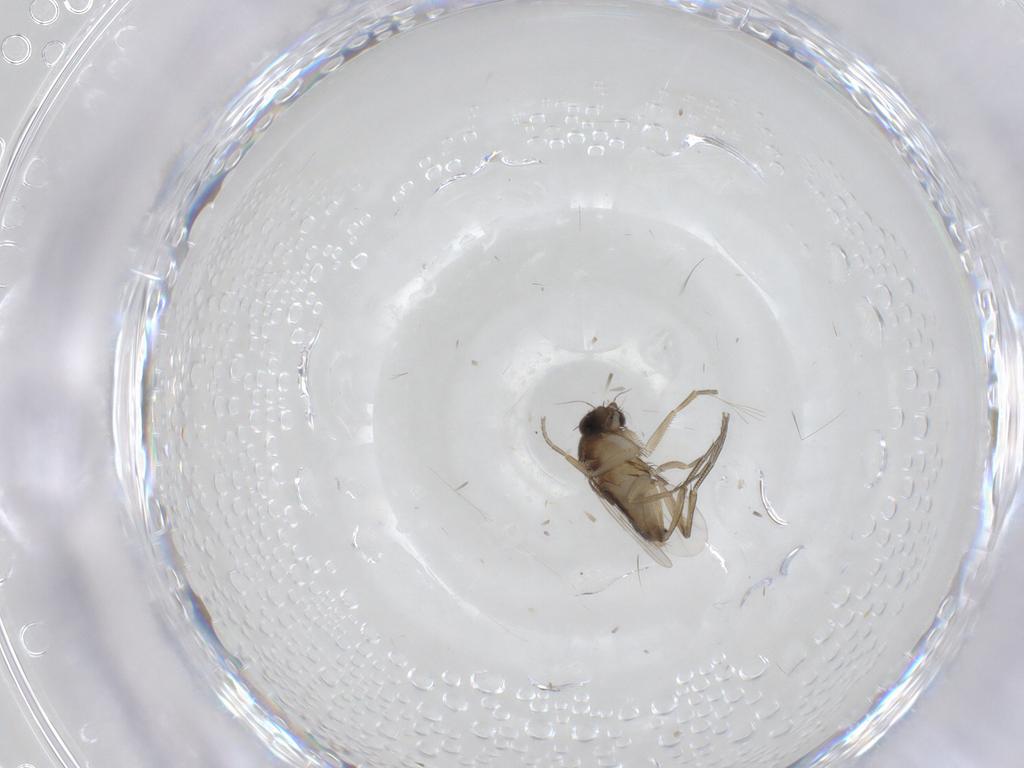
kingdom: Animalia
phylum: Arthropoda
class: Insecta
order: Diptera
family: Phoridae
